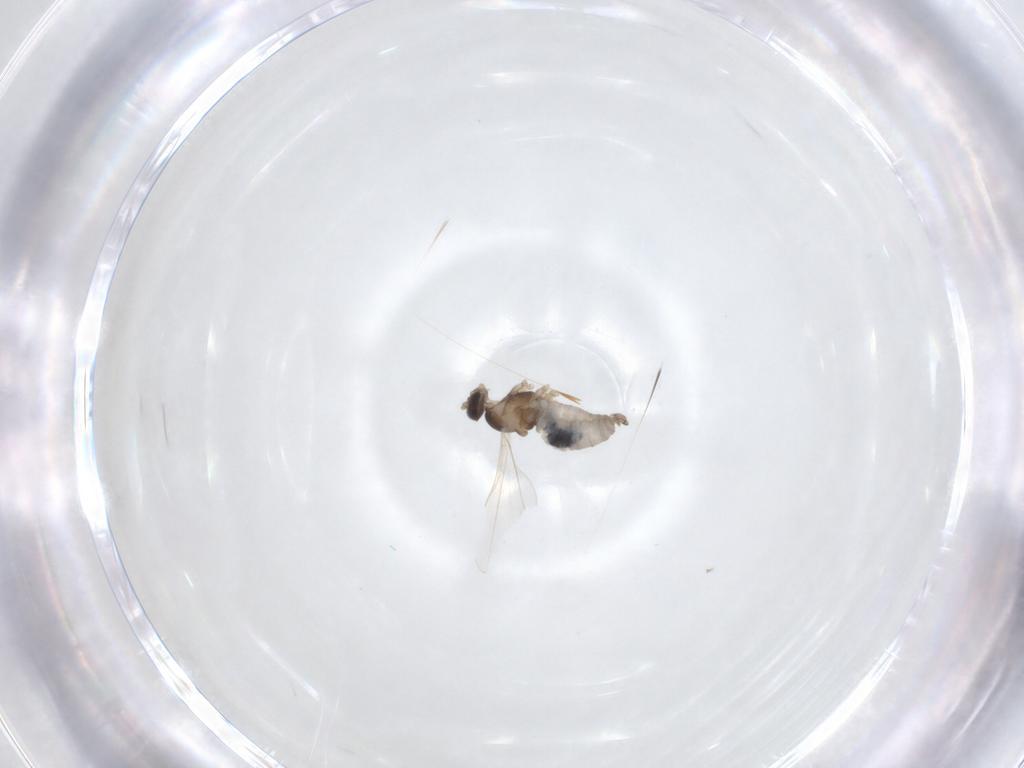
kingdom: Animalia
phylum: Arthropoda
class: Insecta
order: Diptera
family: Cecidomyiidae
